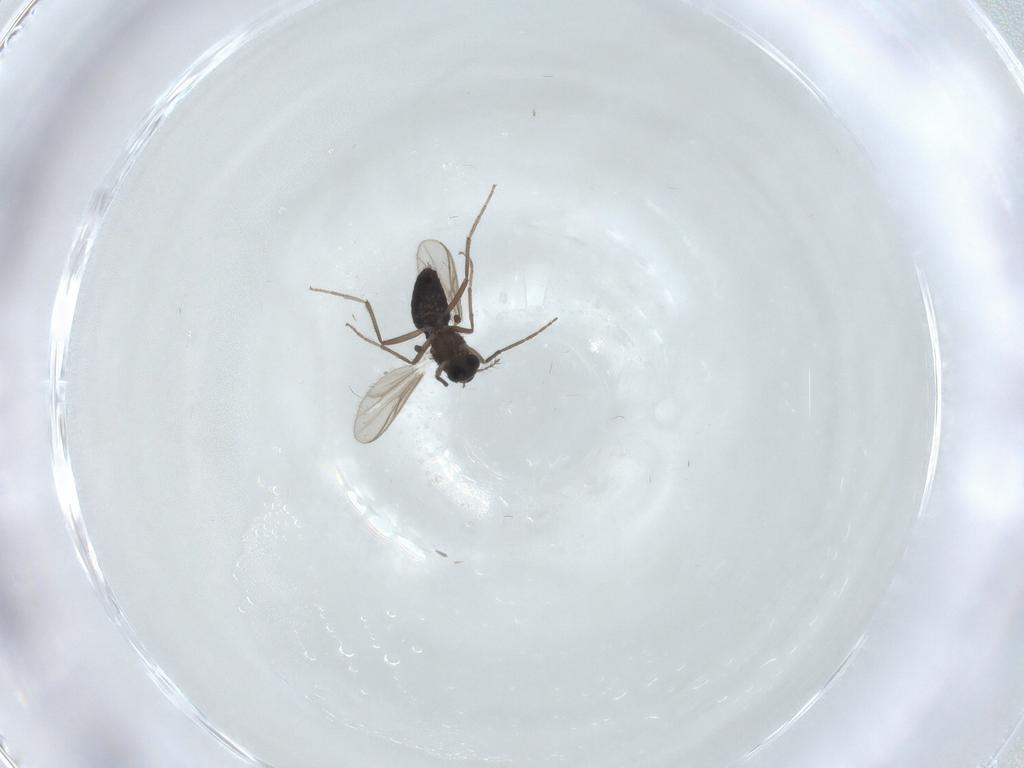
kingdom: Animalia
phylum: Arthropoda
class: Insecta
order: Diptera
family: Chironomidae
